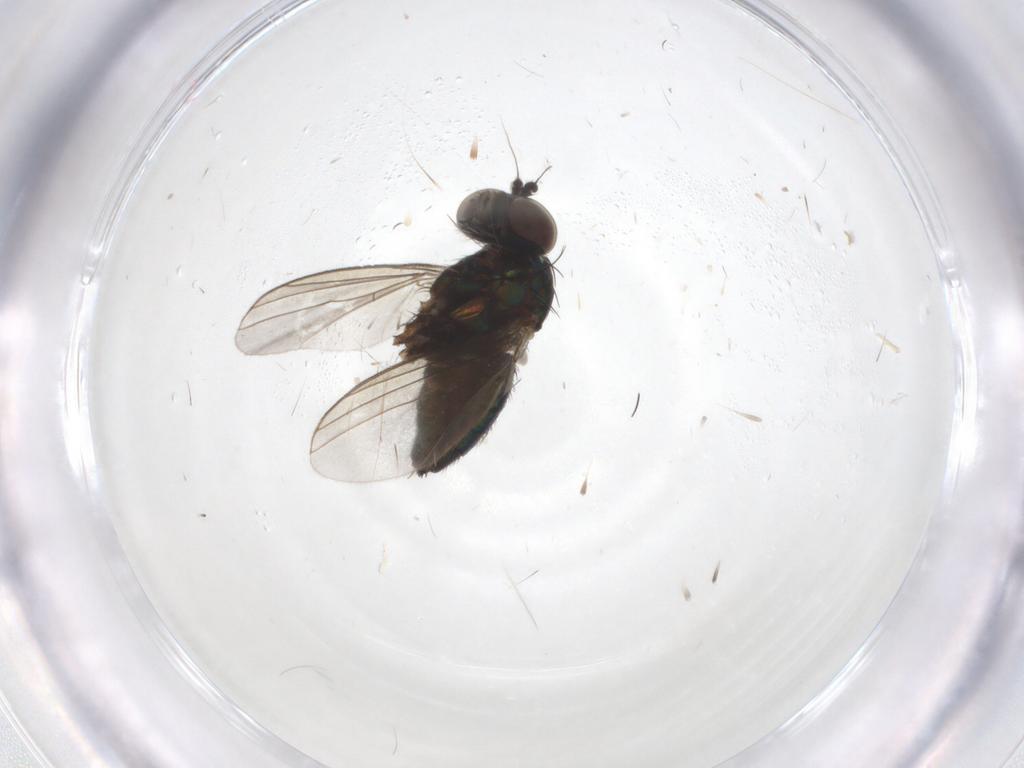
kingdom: Animalia
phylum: Arthropoda
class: Insecta
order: Diptera
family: Dolichopodidae
